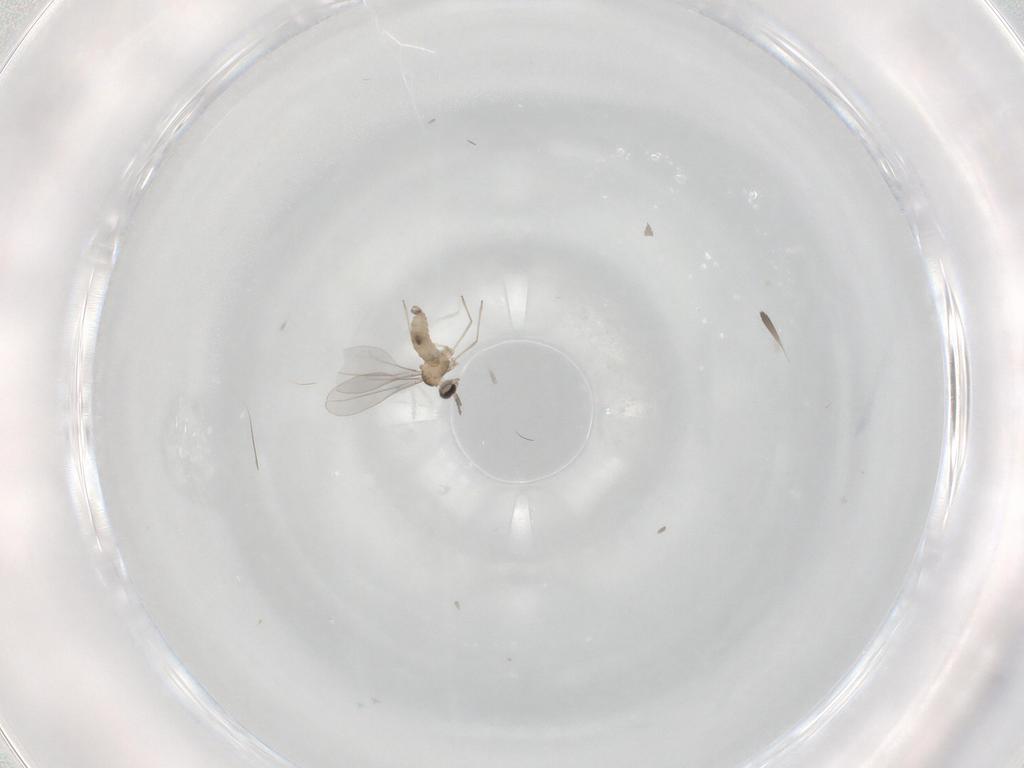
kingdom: Animalia
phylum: Arthropoda
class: Insecta
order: Diptera
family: Cecidomyiidae
